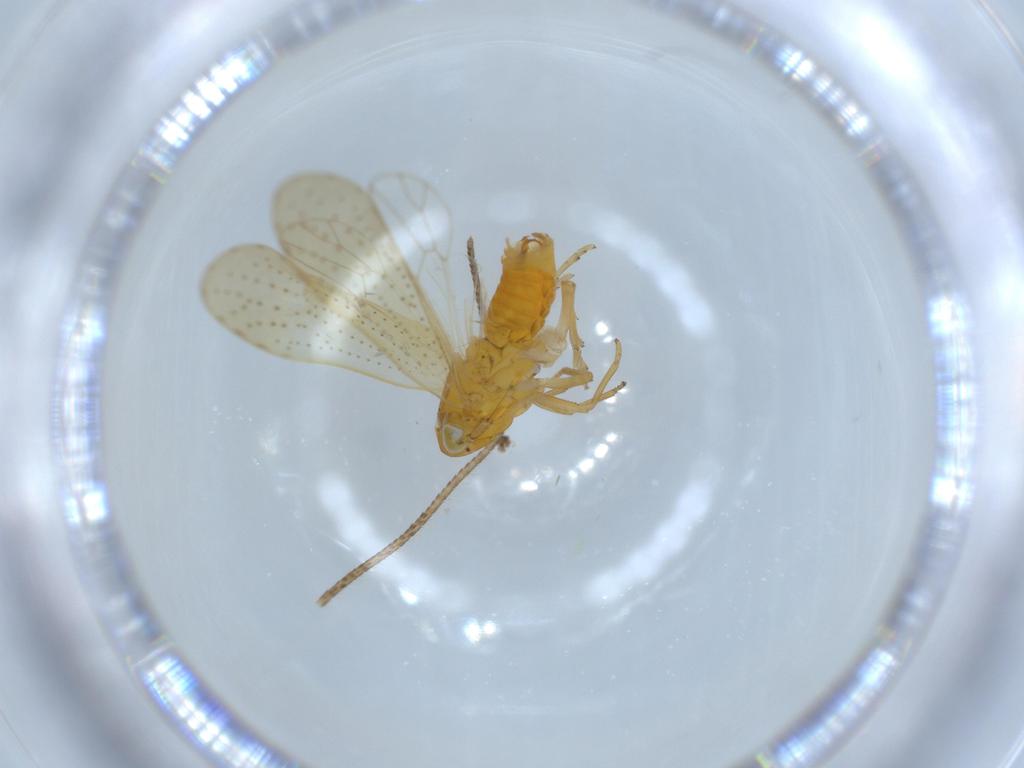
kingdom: Animalia
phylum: Arthropoda
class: Insecta
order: Hemiptera
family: Delphacidae
